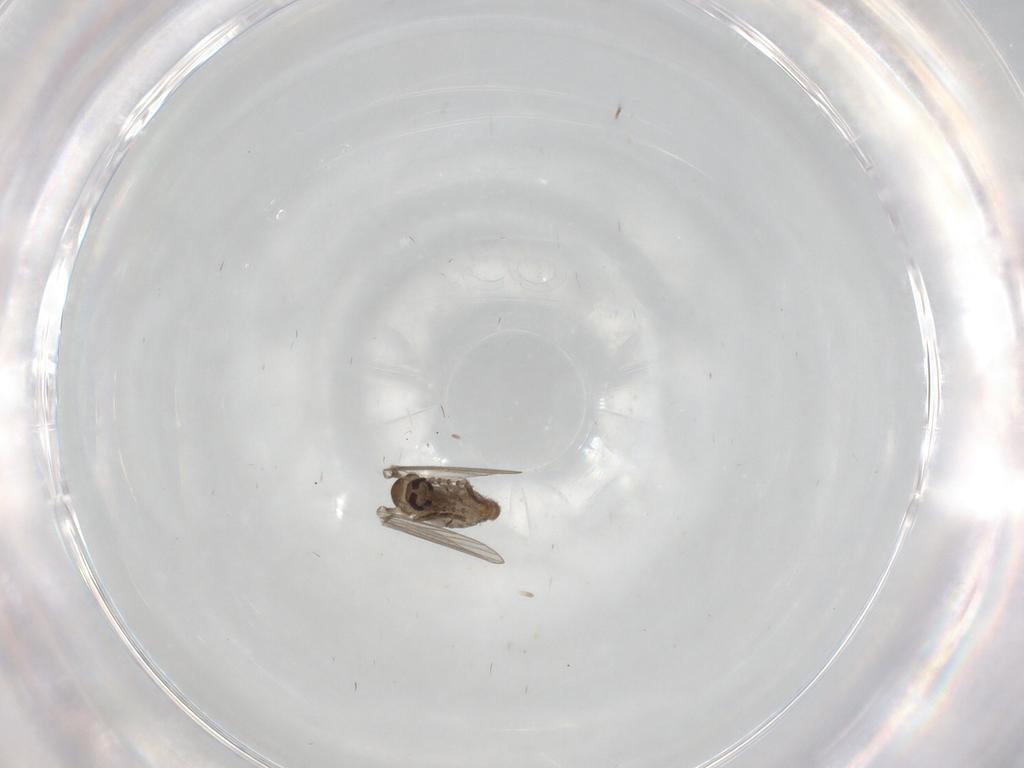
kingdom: Animalia
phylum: Arthropoda
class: Insecta
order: Diptera
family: Psychodidae
